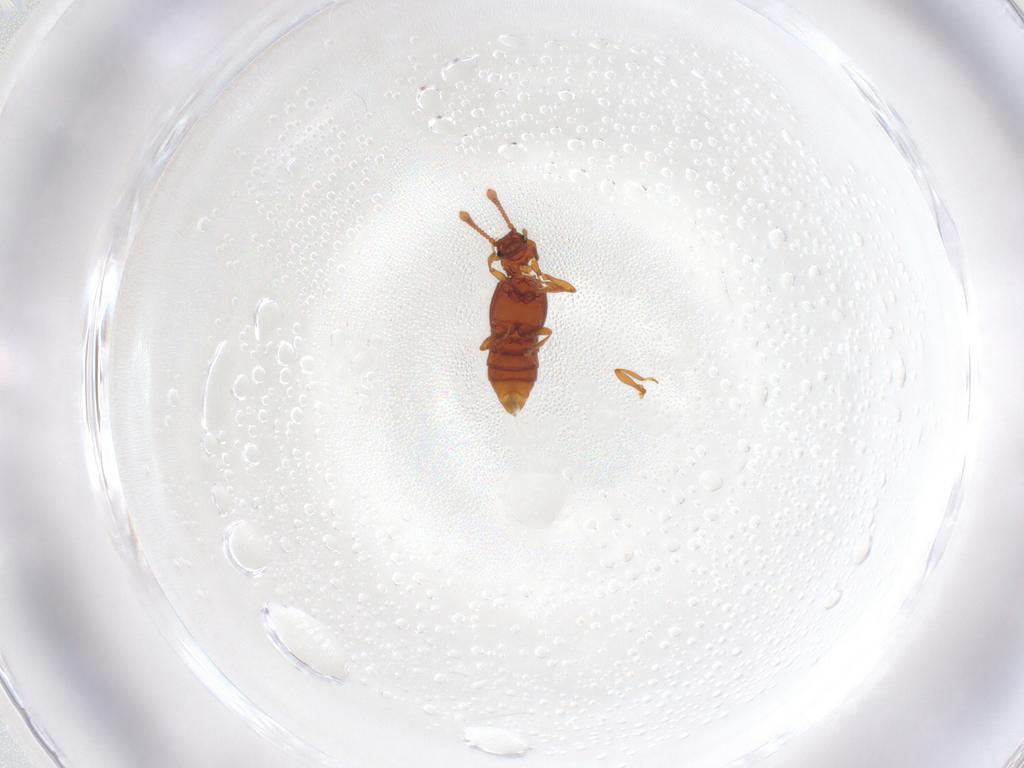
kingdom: Animalia
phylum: Arthropoda
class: Insecta
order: Coleoptera
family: Staphylinidae
